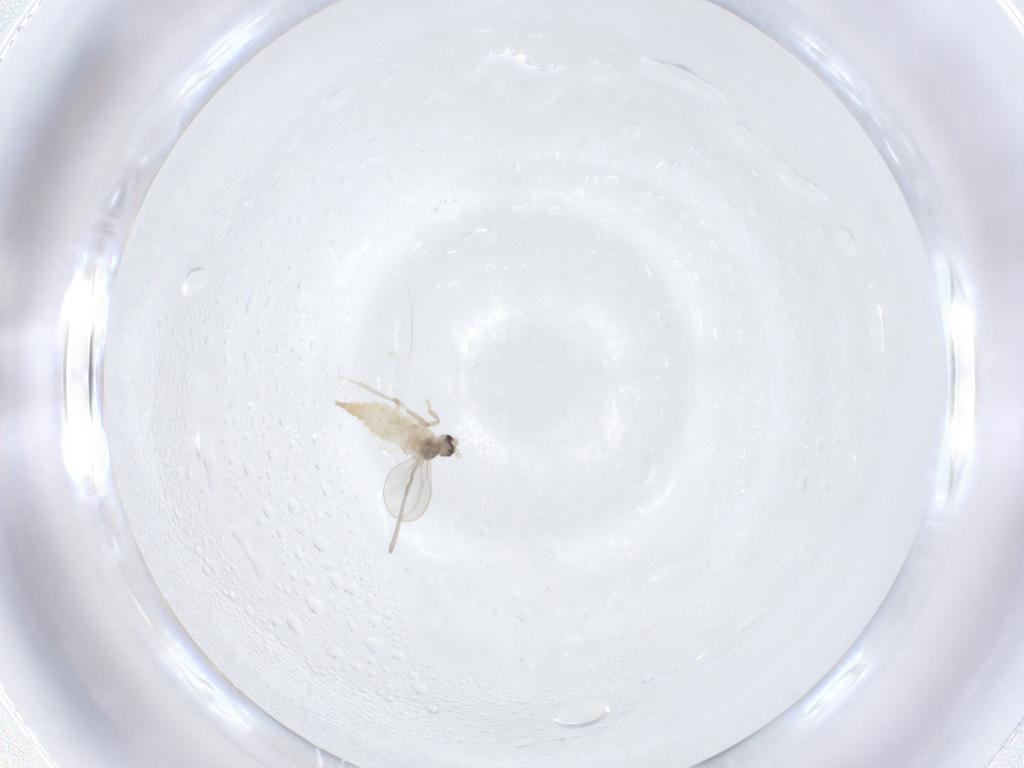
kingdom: Animalia
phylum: Arthropoda
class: Insecta
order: Diptera
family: Cecidomyiidae
